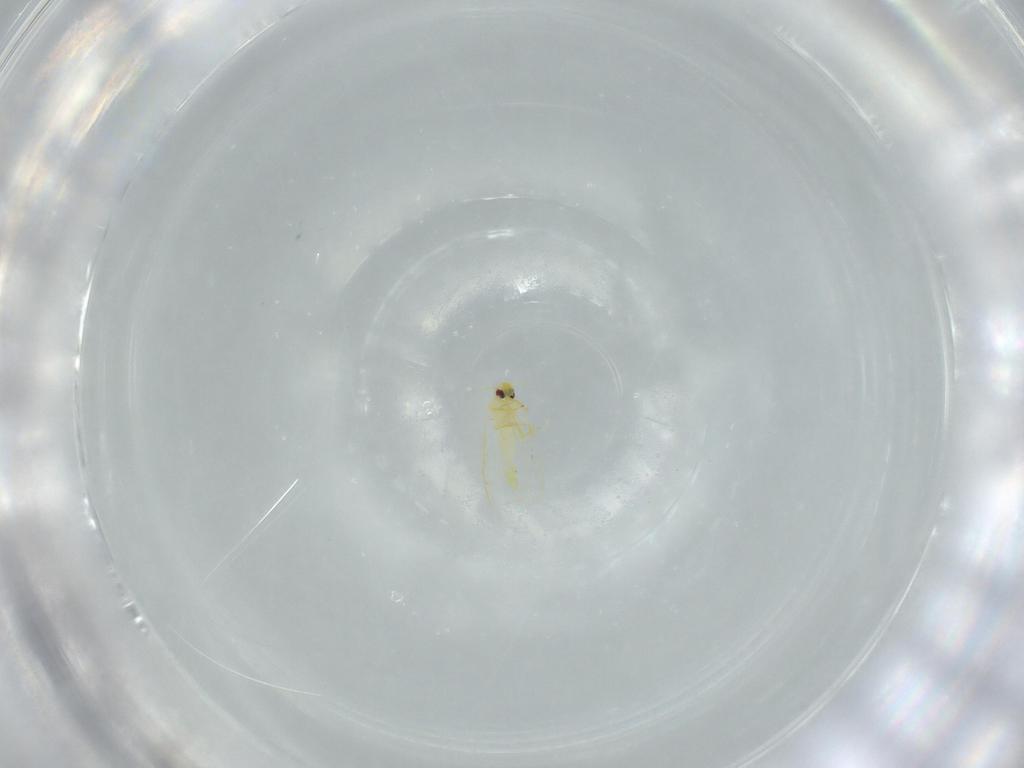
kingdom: Animalia
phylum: Arthropoda
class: Insecta
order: Hemiptera
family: Aleyrodidae
